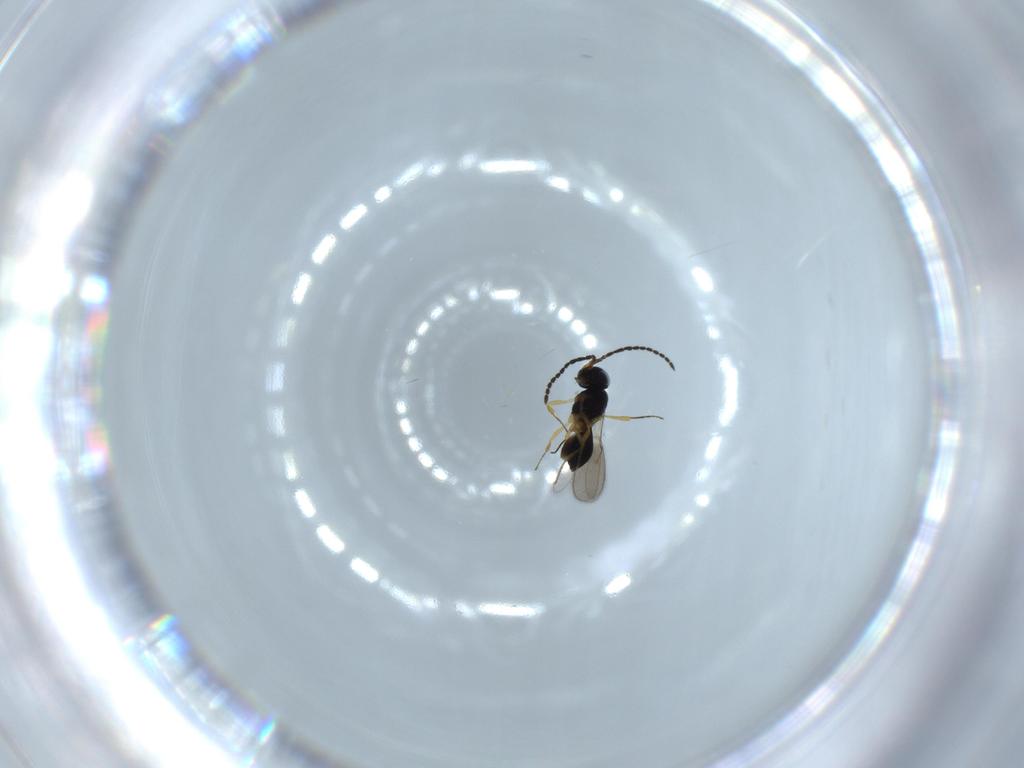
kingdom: Animalia
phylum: Arthropoda
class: Insecta
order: Hymenoptera
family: Scelionidae
